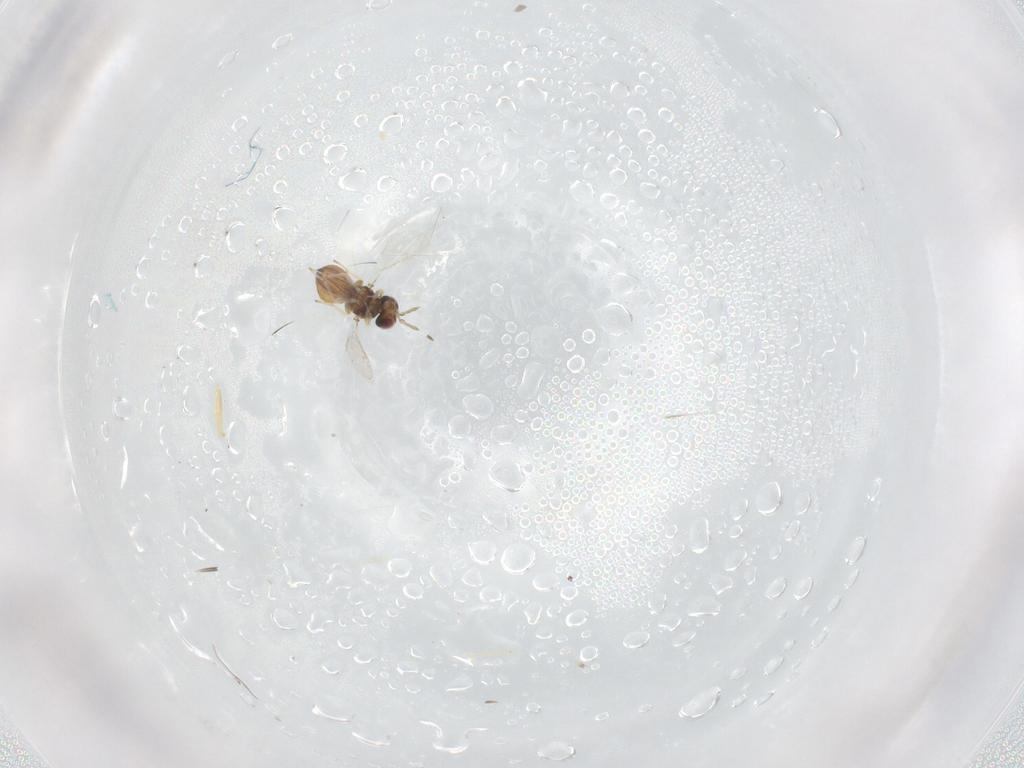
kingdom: Animalia
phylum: Arthropoda
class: Insecta
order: Hymenoptera
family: Eulophidae
